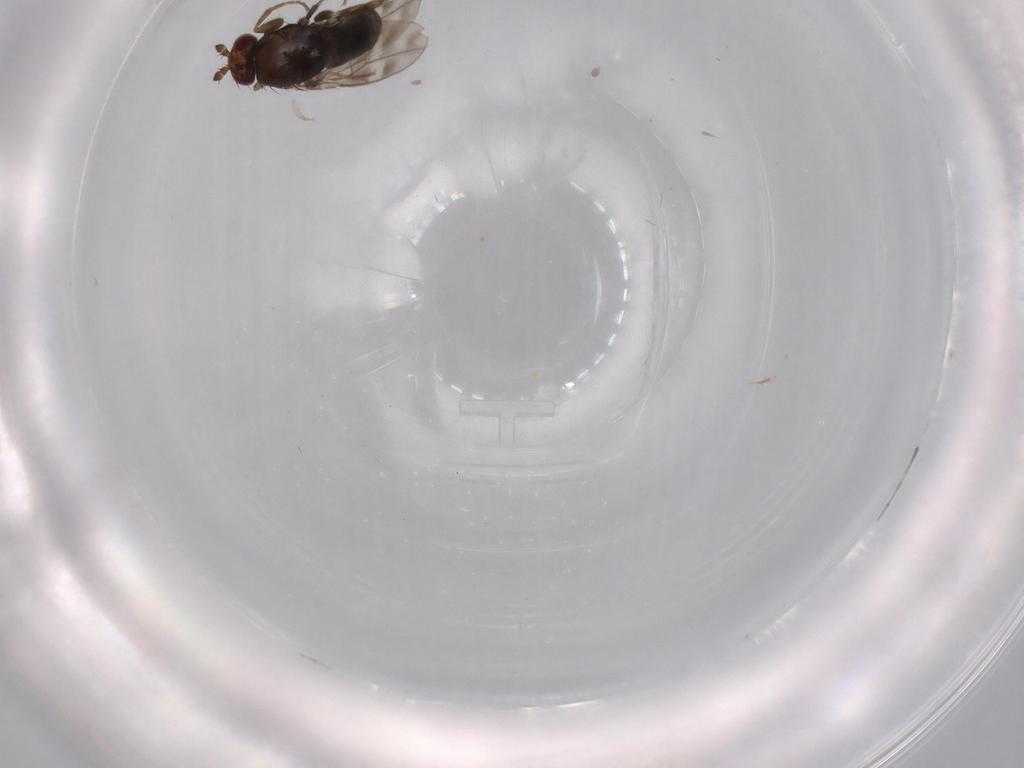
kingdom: Animalia
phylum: Arthropoda
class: Insecta
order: Diptera
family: Sphaeroceridae
